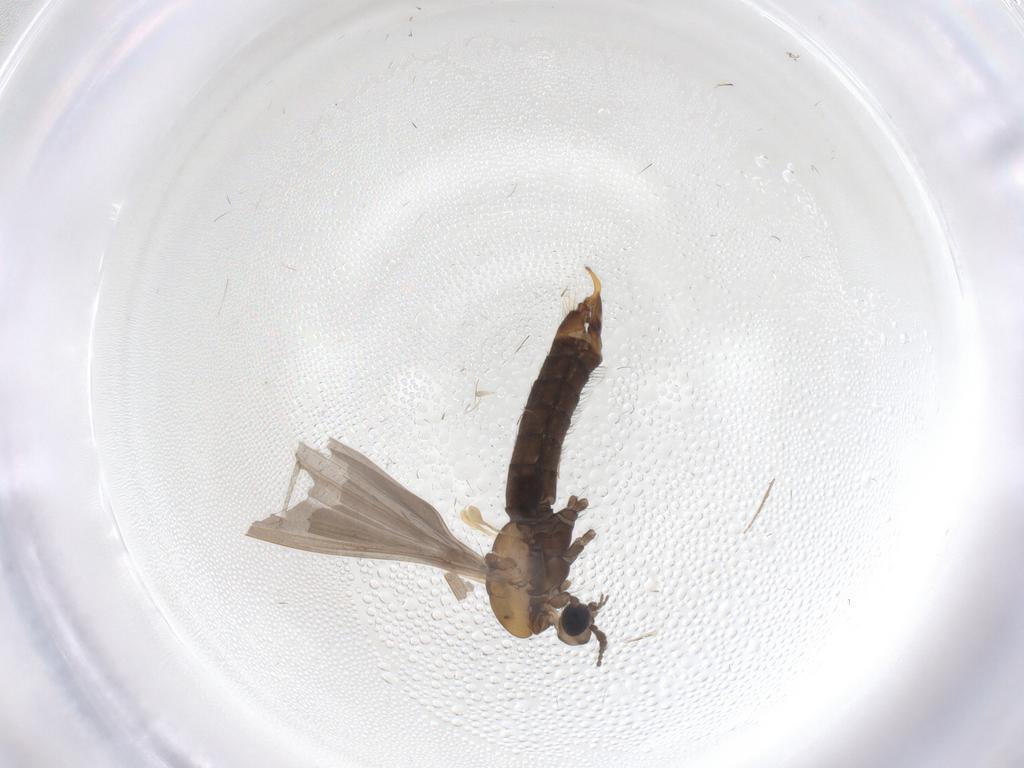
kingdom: Animalia
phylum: Arthropoda
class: Insecta
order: Diptera
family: Limoniidae
